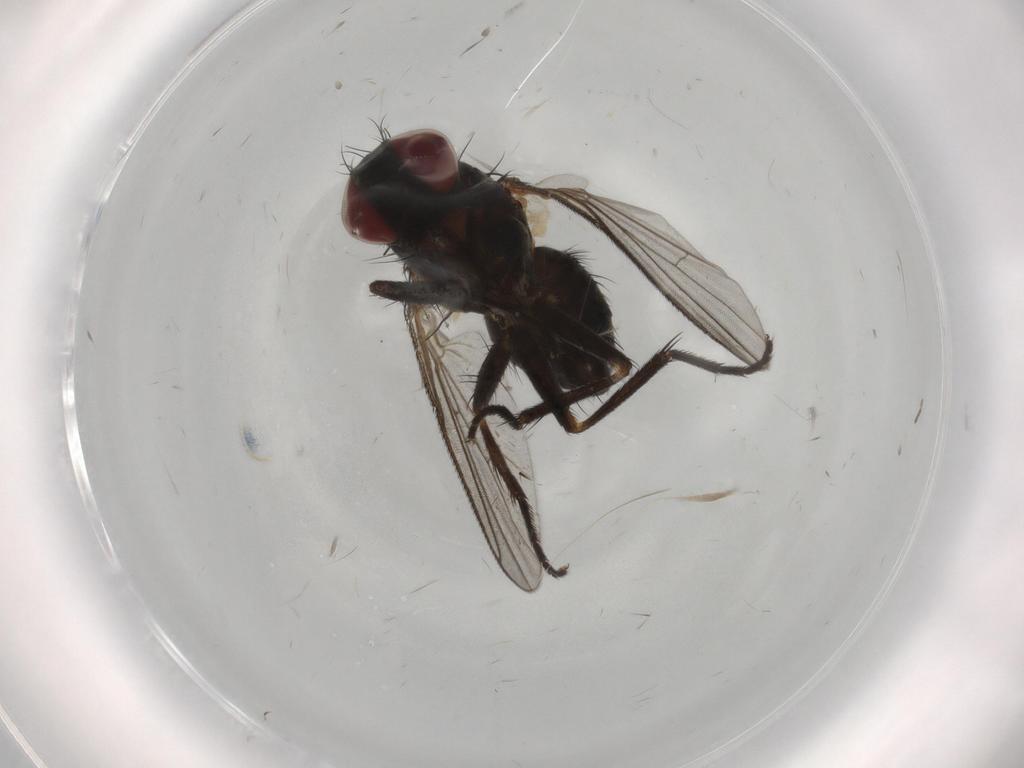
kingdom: Animalia
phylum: Arthropoda
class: Insecta
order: Diptera
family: Muscidae
